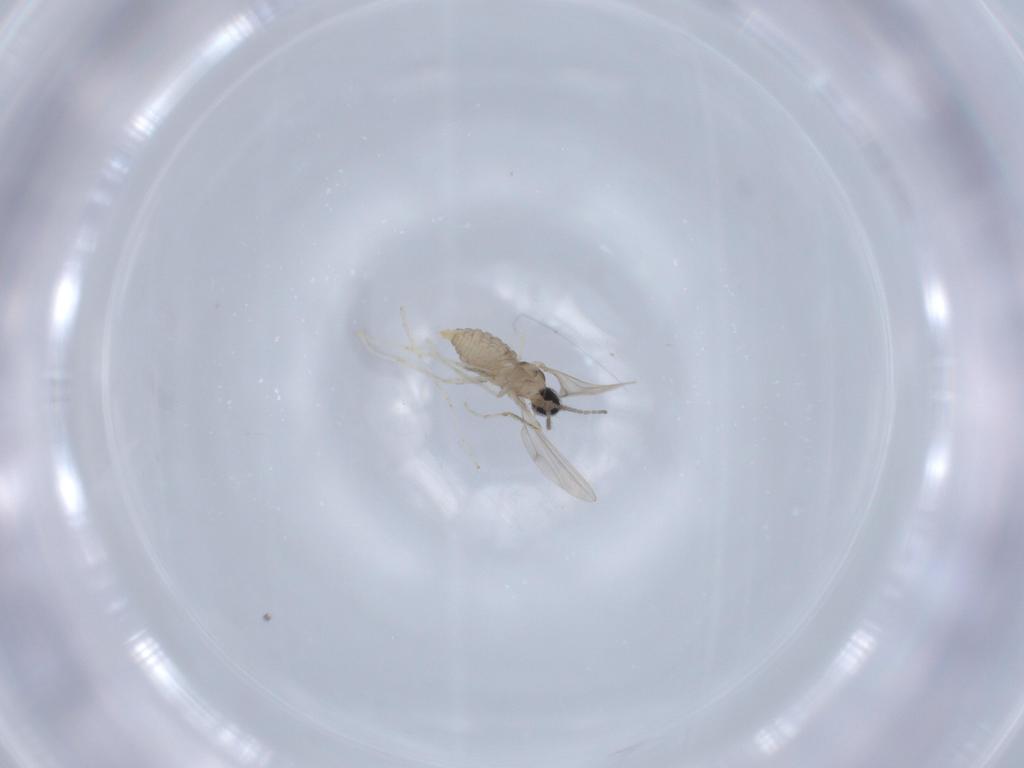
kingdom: Animalia
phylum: Arthropoda
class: Insecta
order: Diptera
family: Cecidomyiidae
